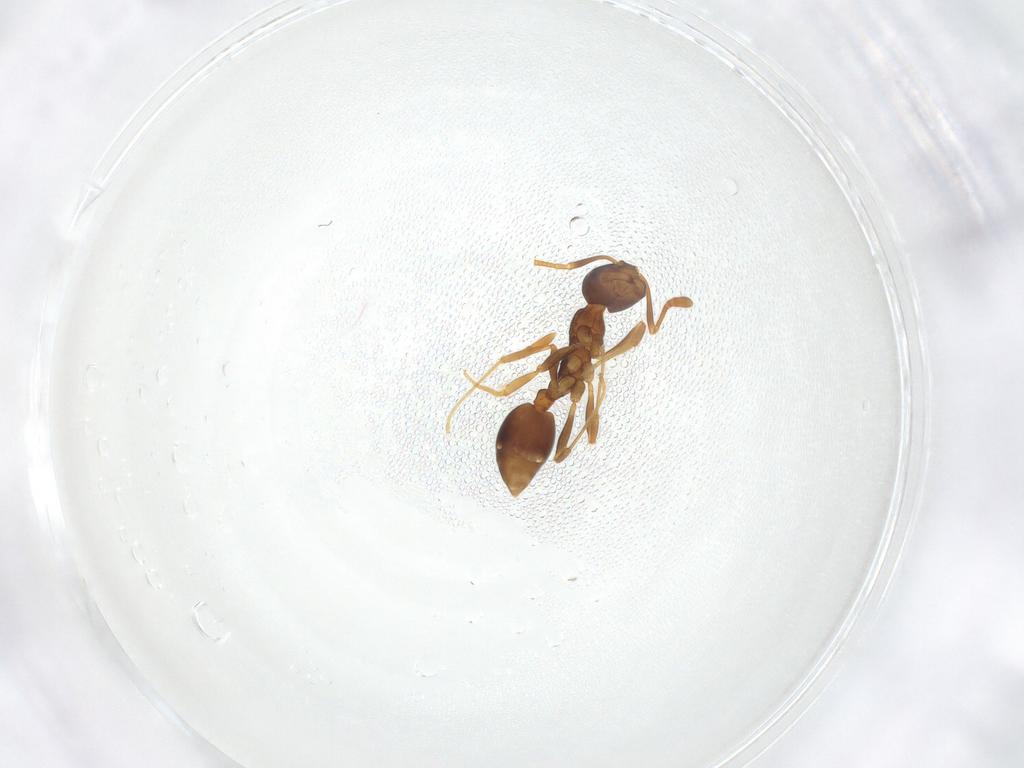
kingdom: Animalia
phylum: Arthropoda
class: Insecta
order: Hymenoptera
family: Formicidae
